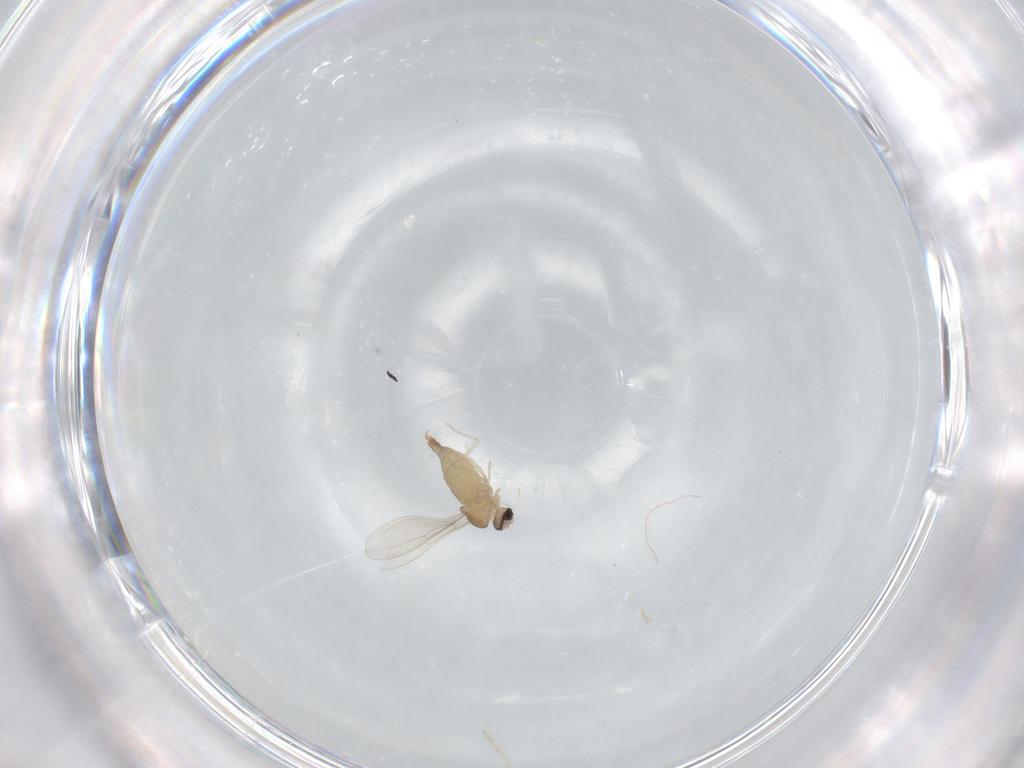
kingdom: Animalia
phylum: Arthropoda
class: Insecta
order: Diptera
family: Cecidomyiidae
